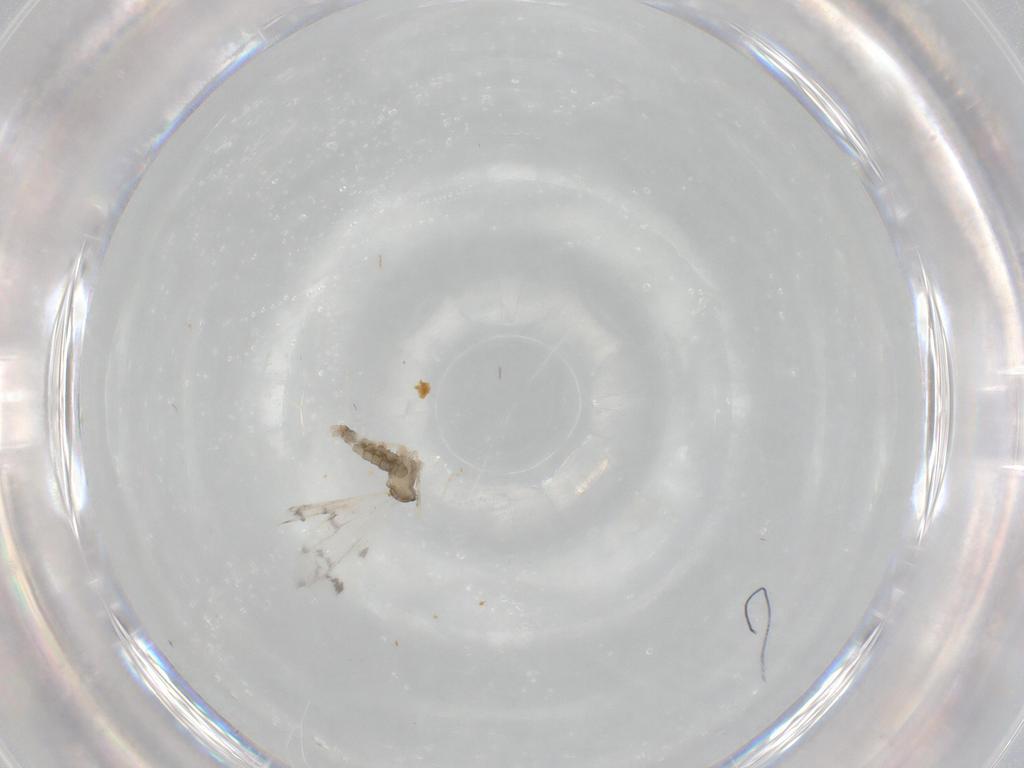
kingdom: Animalia
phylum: Arthropoda
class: Insecta
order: Diptera
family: Cecidomyiidae
